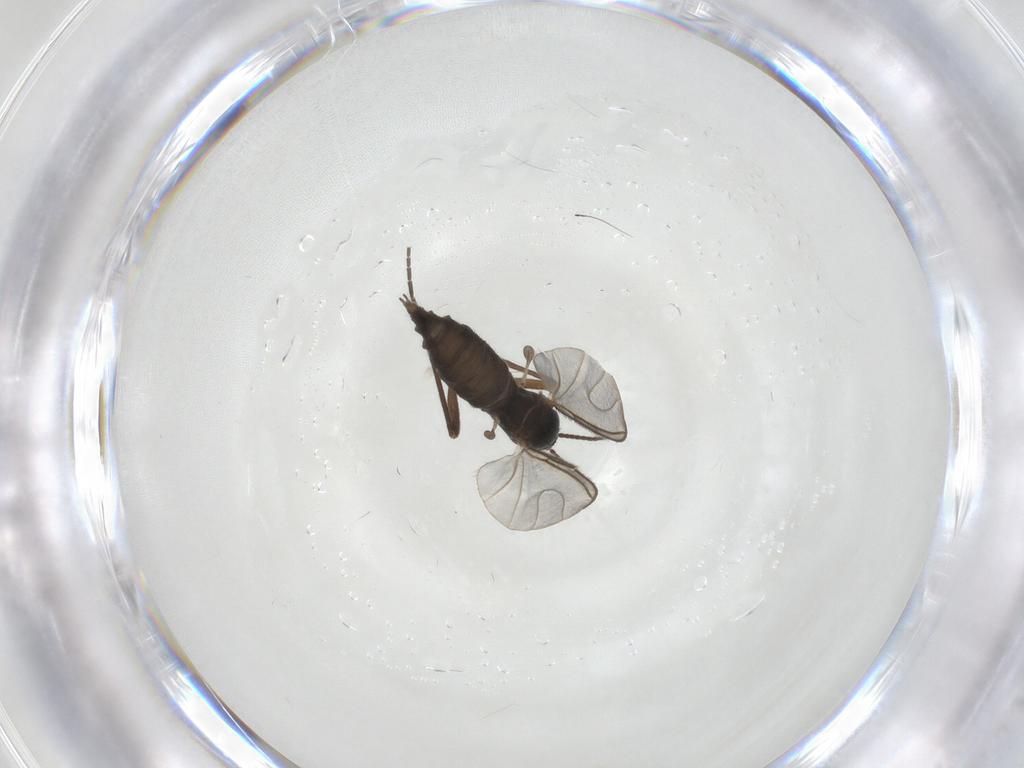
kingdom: Animalia
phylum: Arthropoda
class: Insecta
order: Diptera
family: Sciaridae
